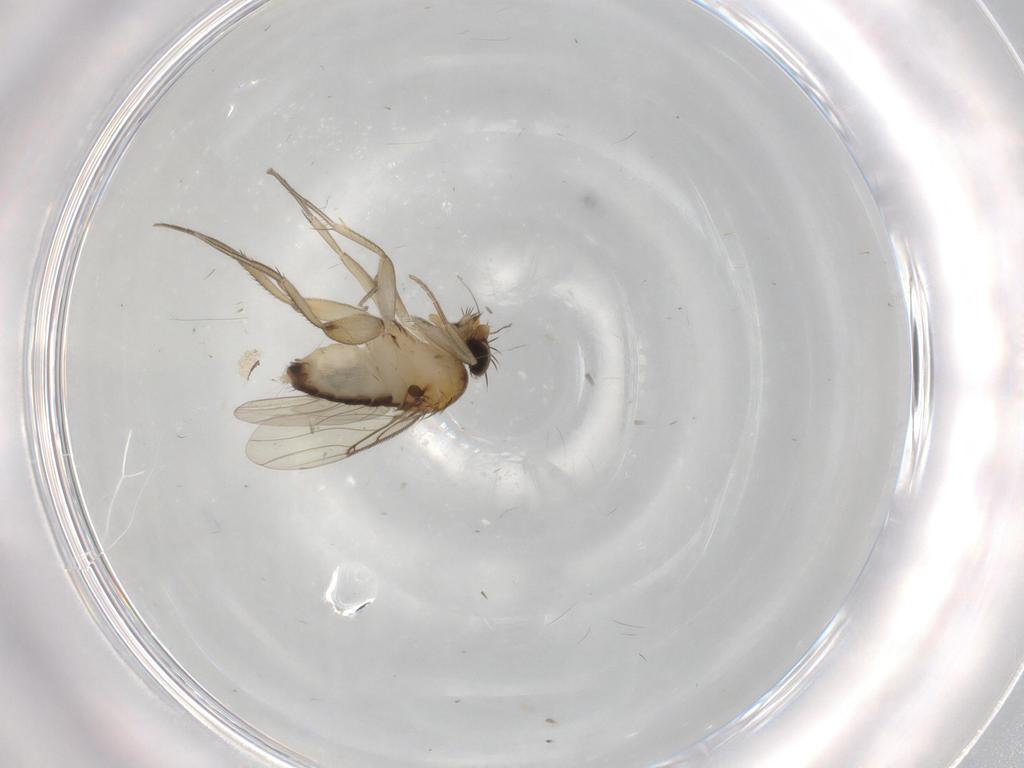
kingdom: Animalia
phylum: Arthropoda
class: Insecta
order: Diptera
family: Phoridae
